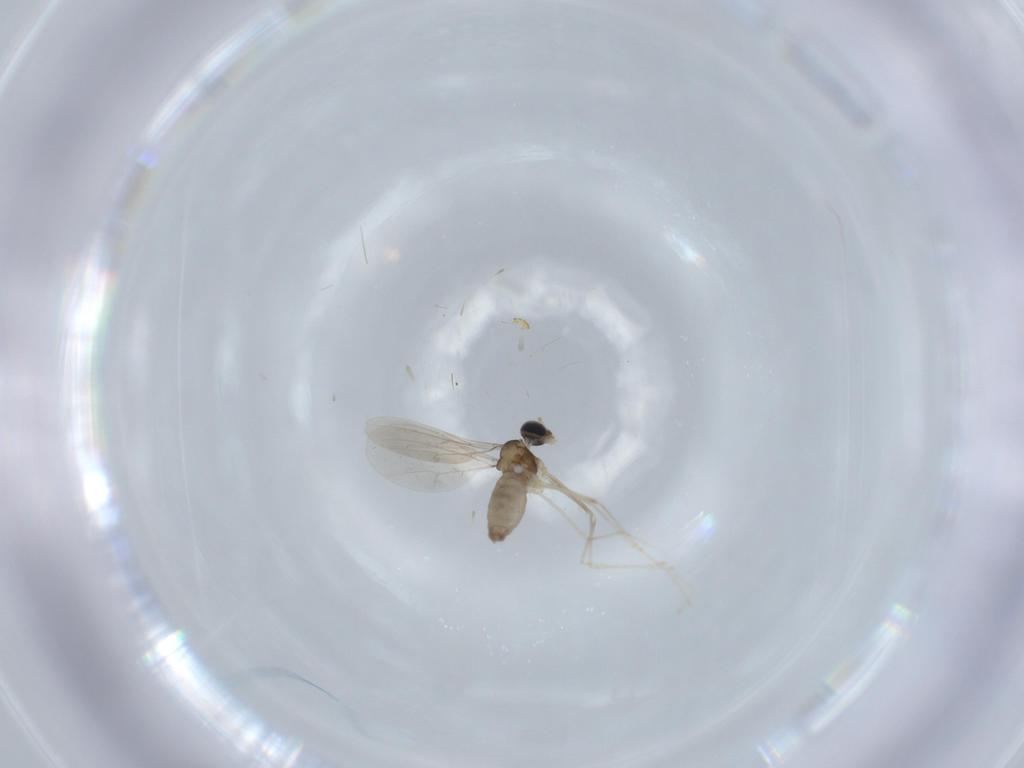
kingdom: Animalia
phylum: Arthropoda
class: Insecta
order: Diptera
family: Cecidomyiidae
